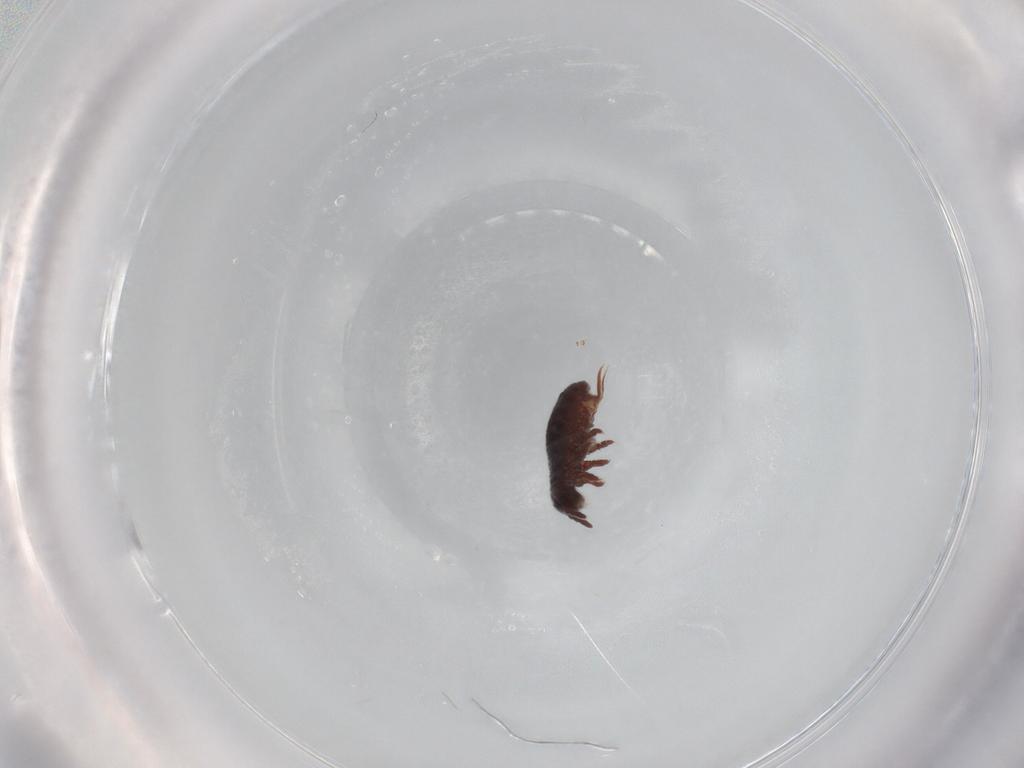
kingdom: Animalia
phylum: Arthropoda
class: Collembola
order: Poduromorpha
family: Poduridae
